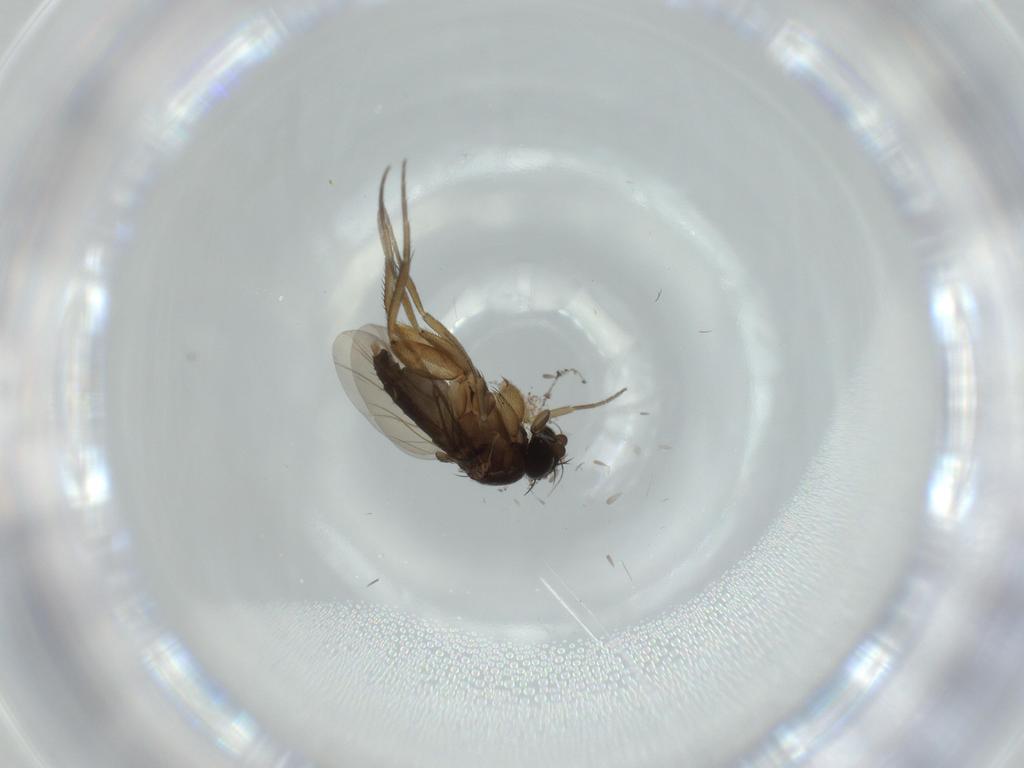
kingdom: Animalia
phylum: Arthropoda
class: Insecta
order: Diptera
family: Phoridae
